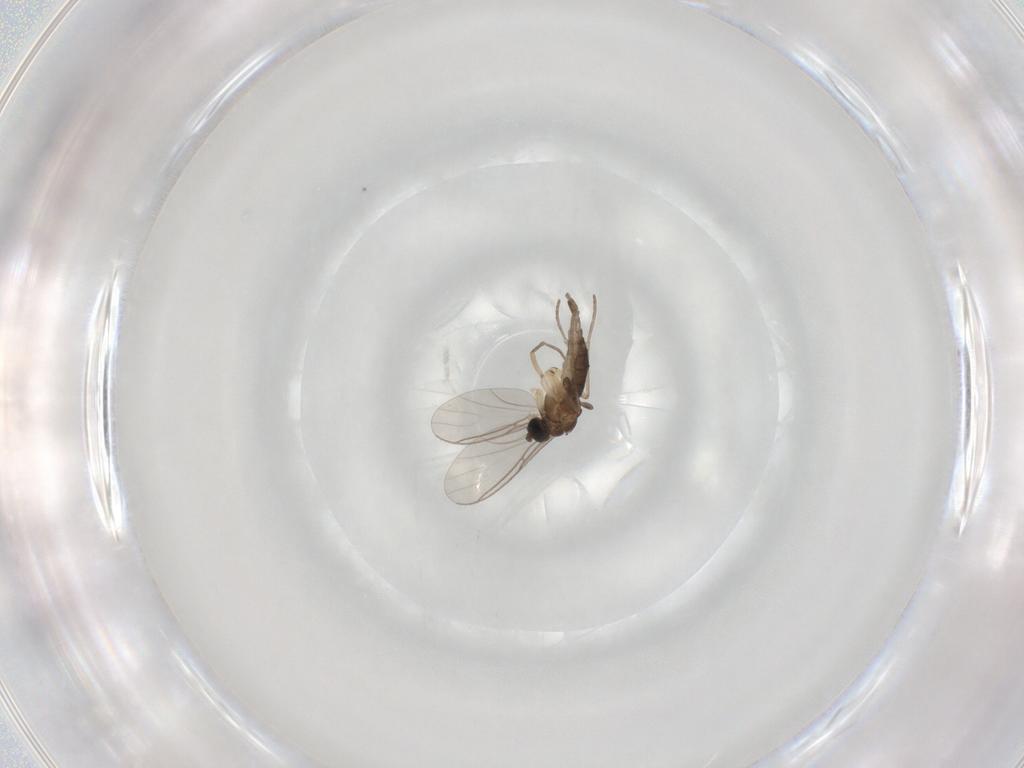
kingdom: Animalia
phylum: Arthropoda
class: Insecta
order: Diptera
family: Sciaridae
